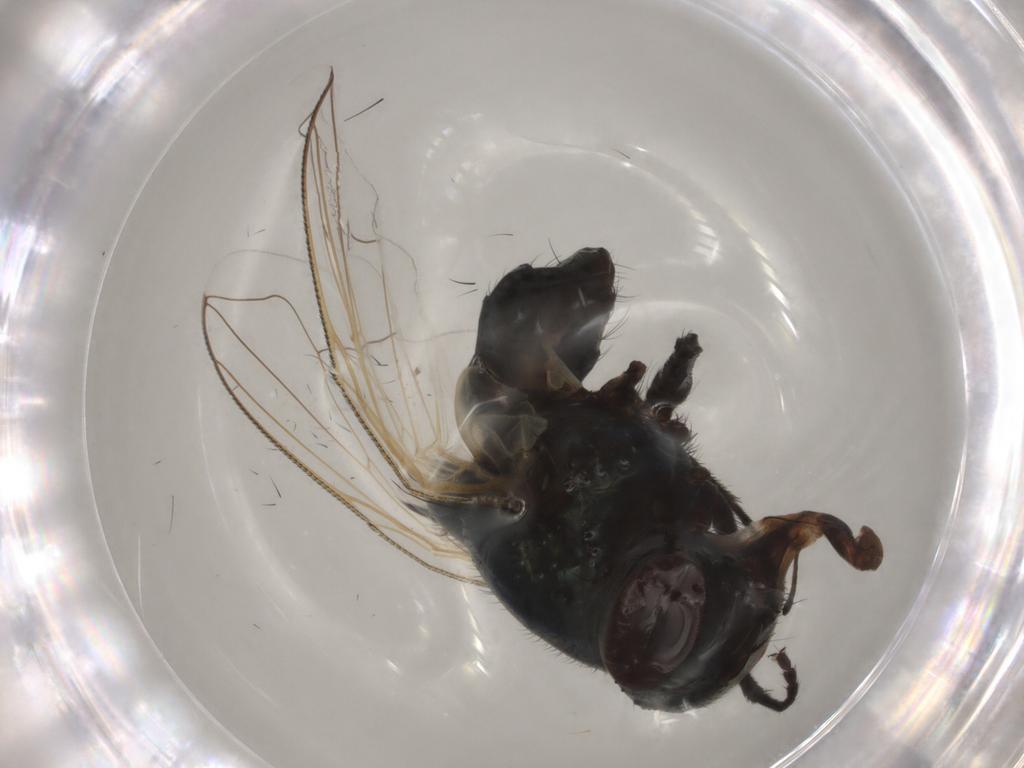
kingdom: Animalia
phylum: Arthropoda
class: Insecta
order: Diptera
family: Muscidae
